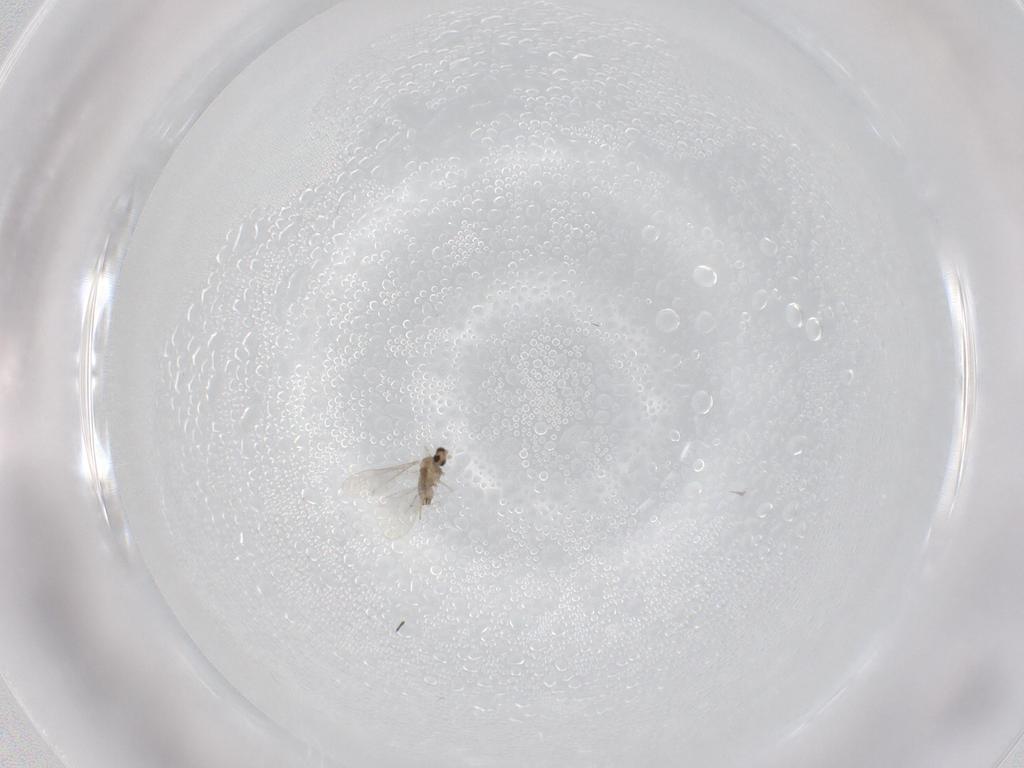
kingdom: Animalia
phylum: Arthropoda
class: Insecta
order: Diptera
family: Cecidomyiidae
